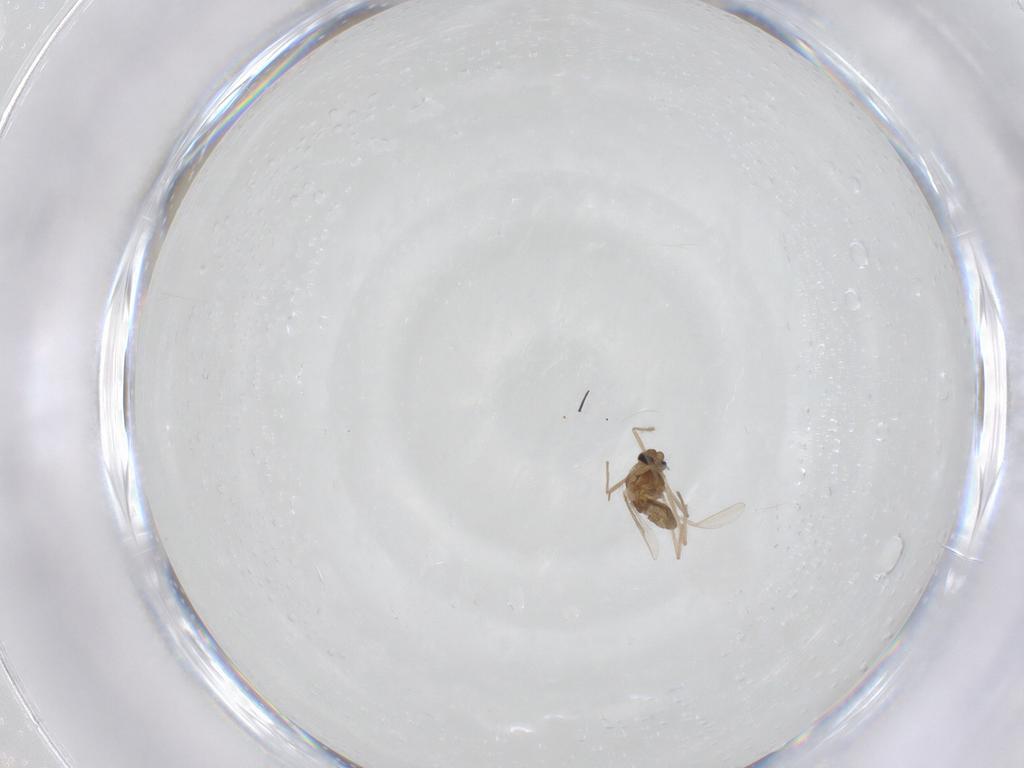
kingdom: Animalia
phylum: Arthropoda
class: Insecta
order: Diptera
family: Chironomidae
